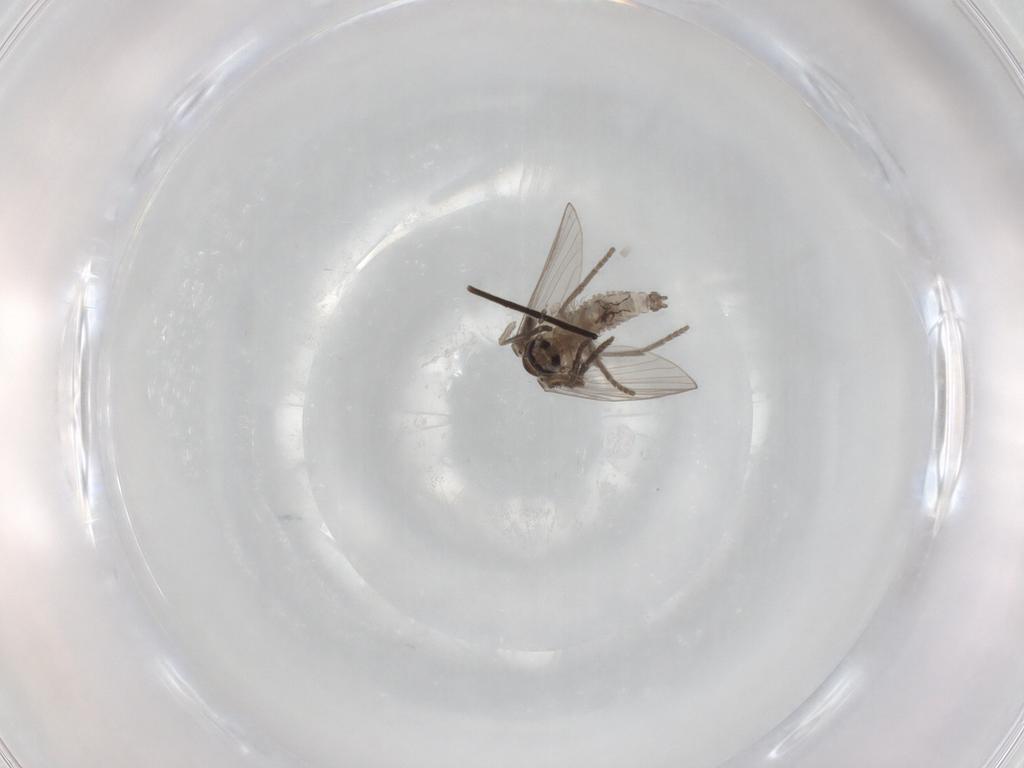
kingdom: Animalia
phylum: Arthropoda
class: Insecta
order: Diptera
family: Psychodidae
